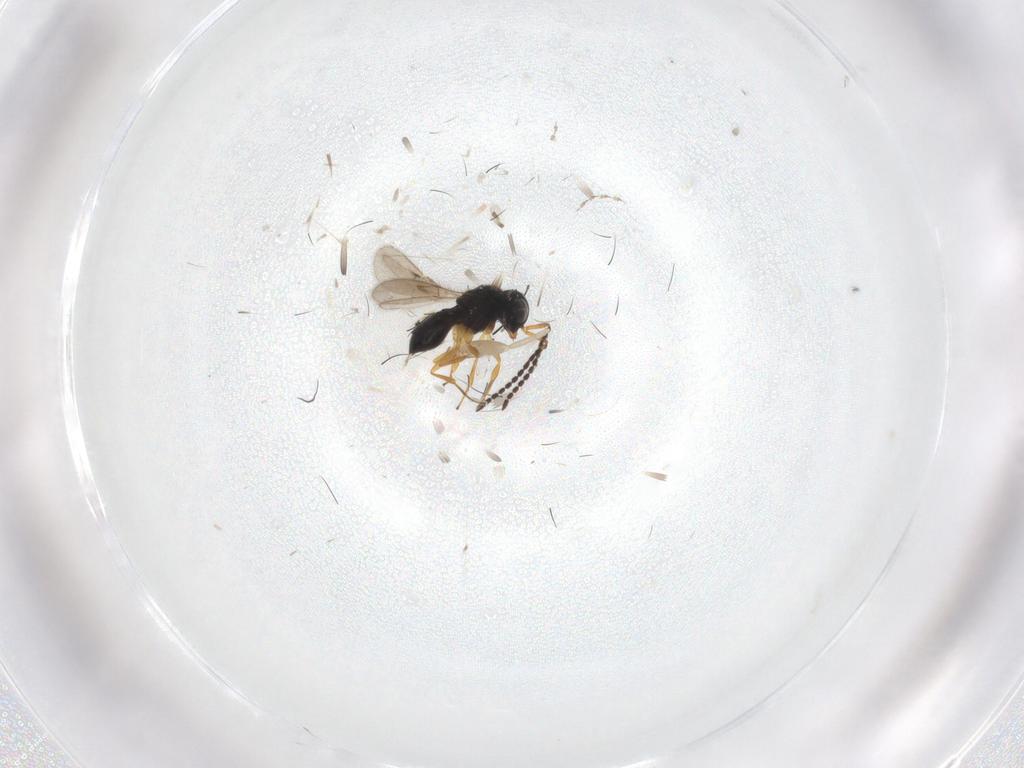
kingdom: Animalia
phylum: Arthropoda
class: Insecta
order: Hymenoptera
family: Scelionidae
